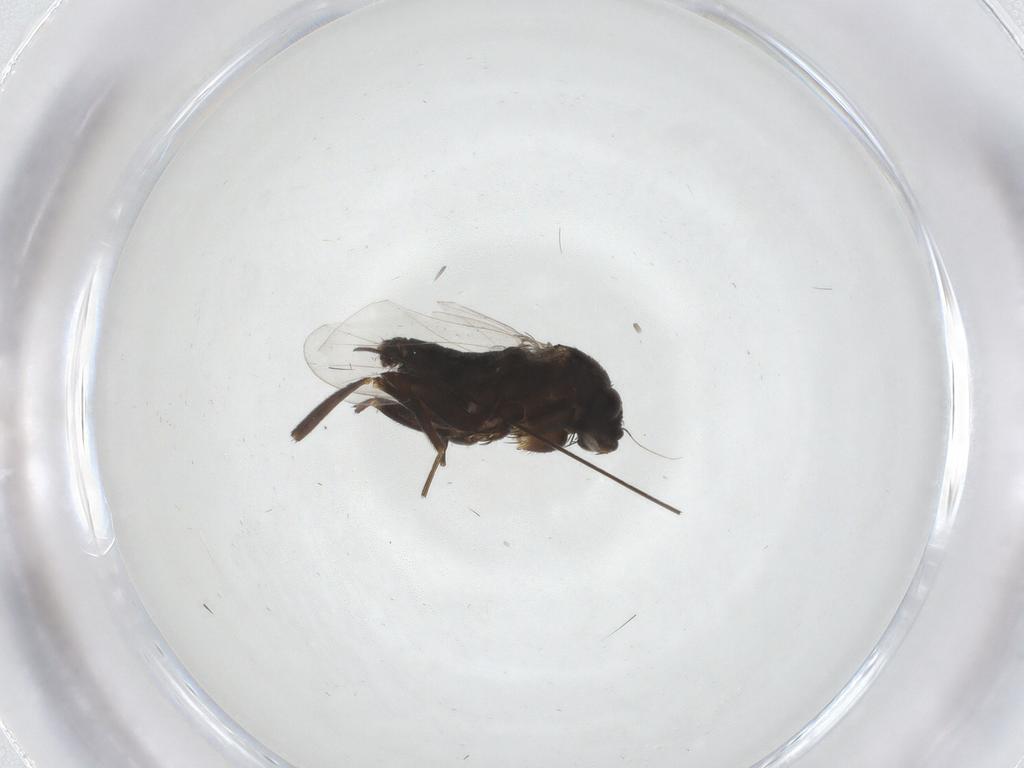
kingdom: Animalia
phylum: Arthropoda
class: Insecta
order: Diptera
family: Phoridae
